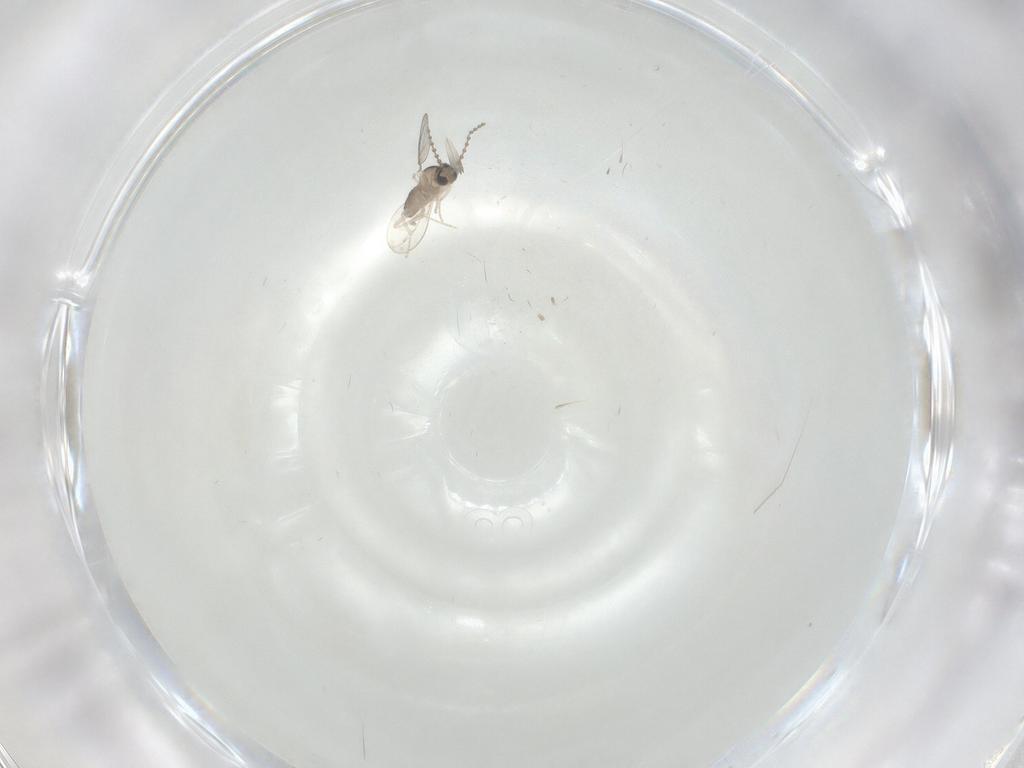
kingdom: Animalia
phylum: Arthropoda
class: Insecta
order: Diptera
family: Cecidomyiidae
